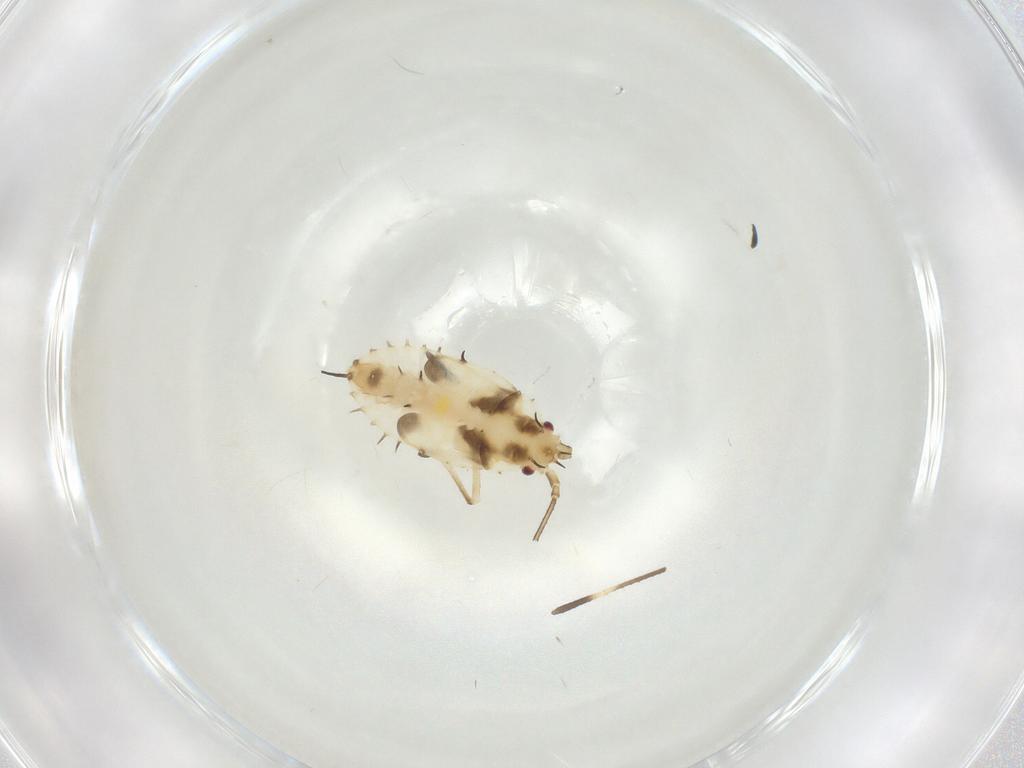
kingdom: Animalia
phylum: Arthropoda
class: Insecta
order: Hemiptera
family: Tingidae
